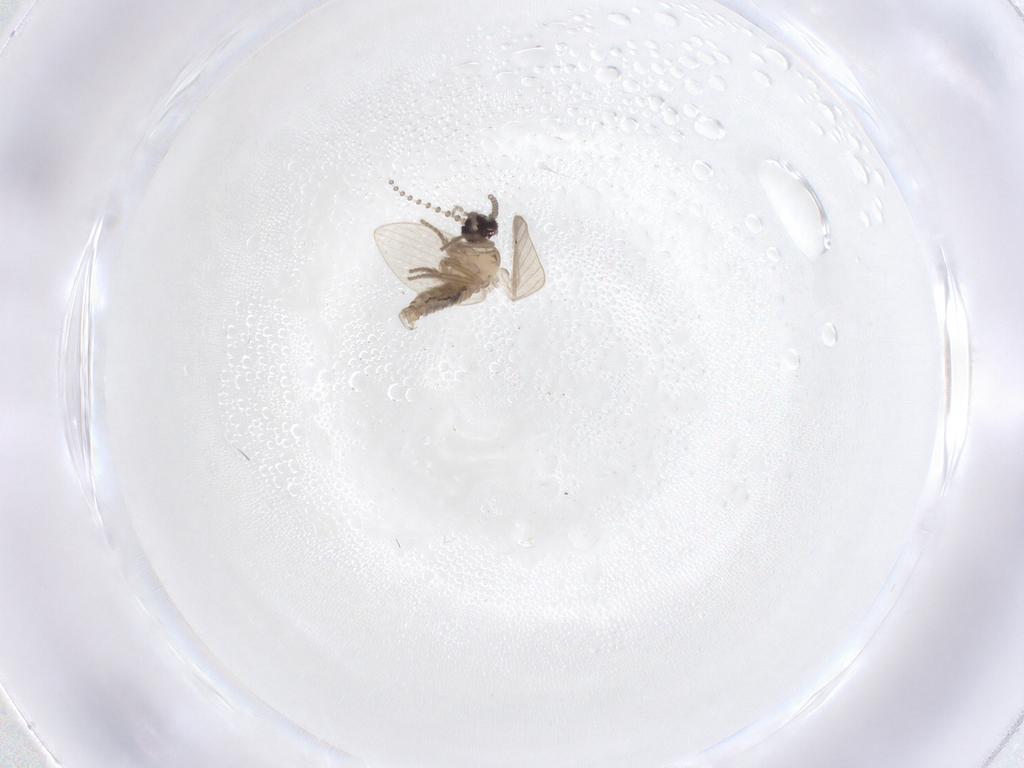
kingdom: Animalia
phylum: Arthropoda
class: Insecta
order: Diptera
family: Psychodidae
